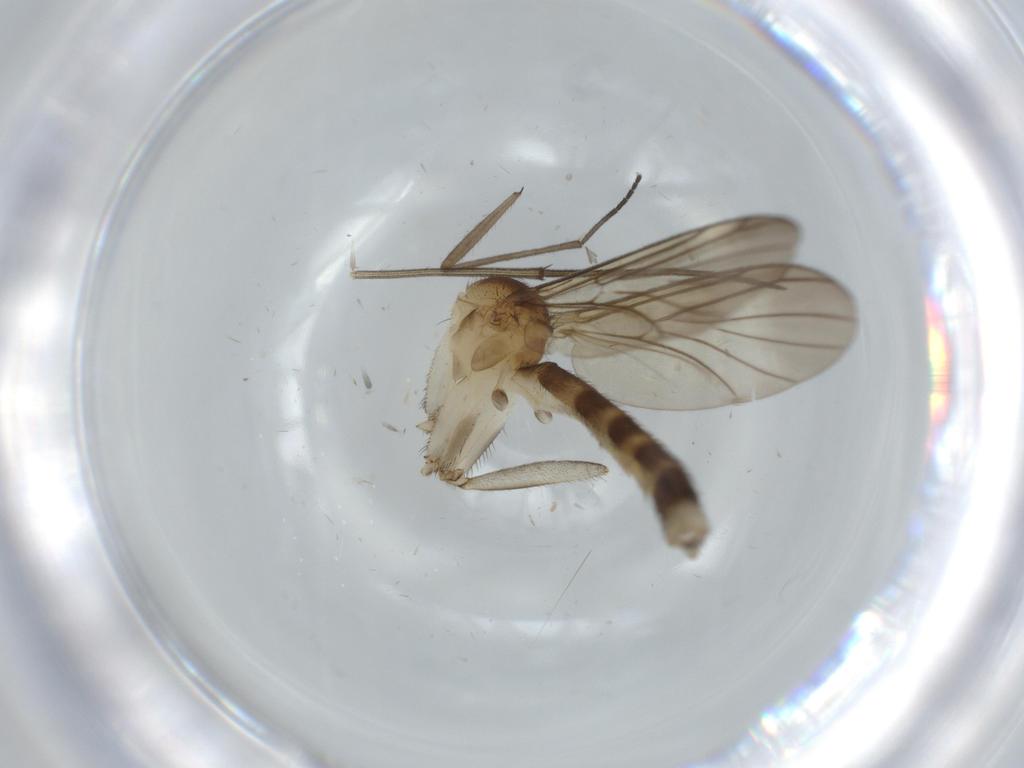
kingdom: Animalia
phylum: Arthropoda
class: Insecta
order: Diptera
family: Mycetophilidae
